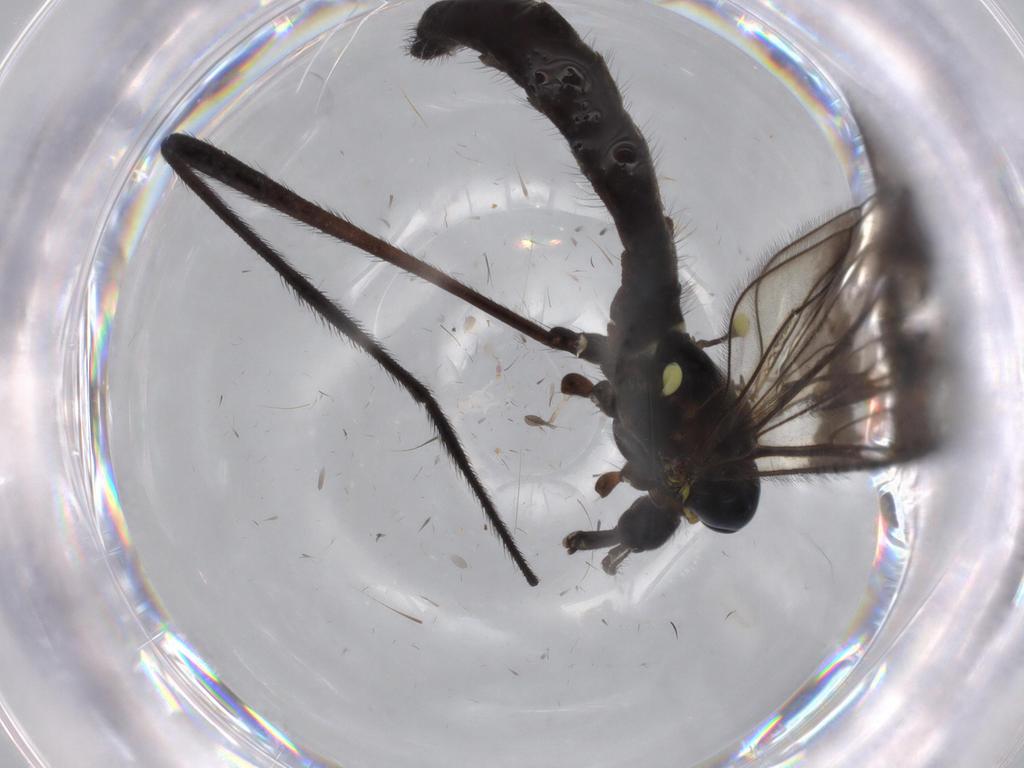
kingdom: Animalia
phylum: Arthropoda
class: Insecta
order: Diptera
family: Limoniidae
